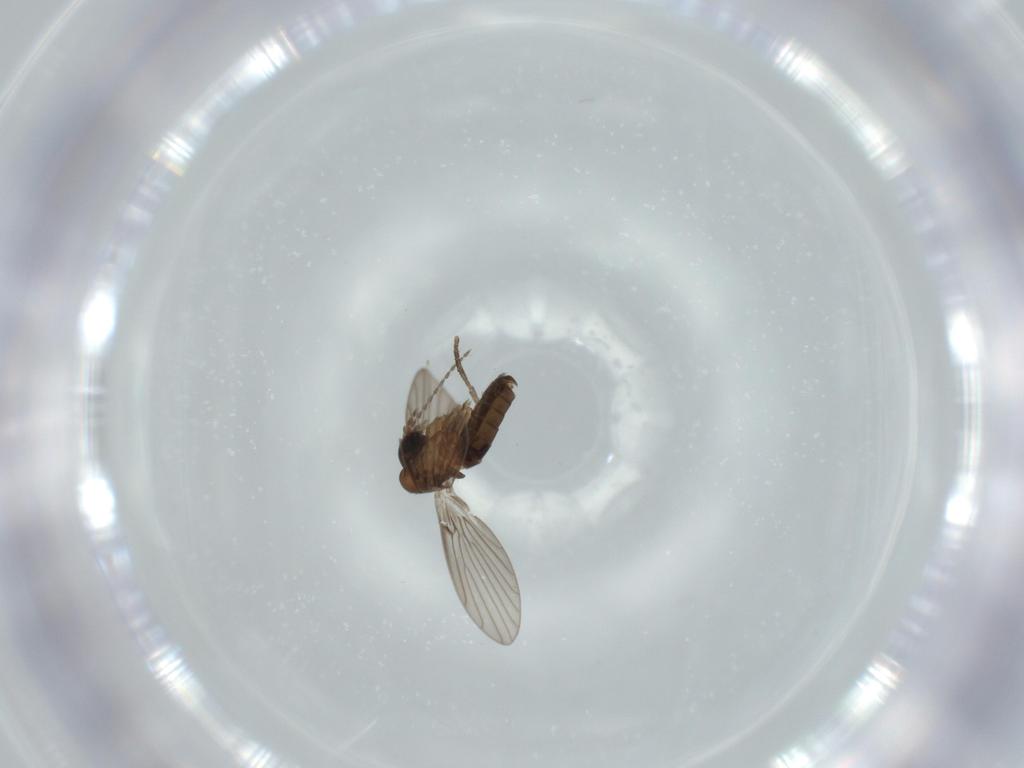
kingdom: Animalia
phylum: Arthropoda
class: Insecta
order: Diptera
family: Psychodidae
